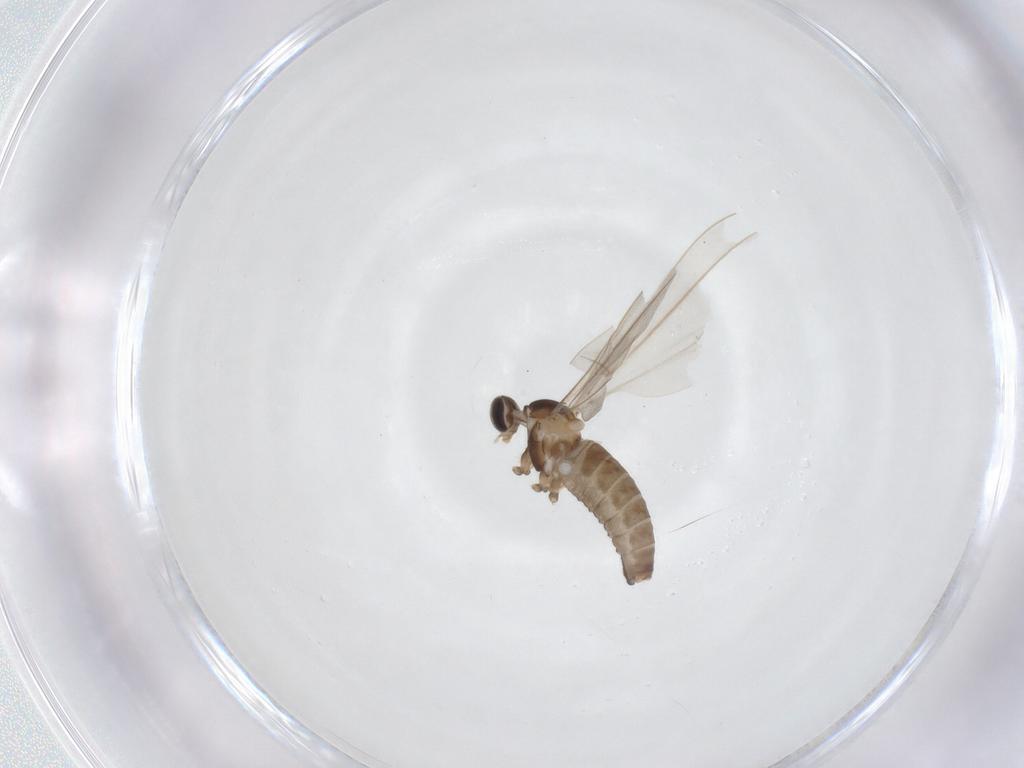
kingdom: Animalia
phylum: Arthropoda
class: Insecta
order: Diptera
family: Cecidomyiidae
